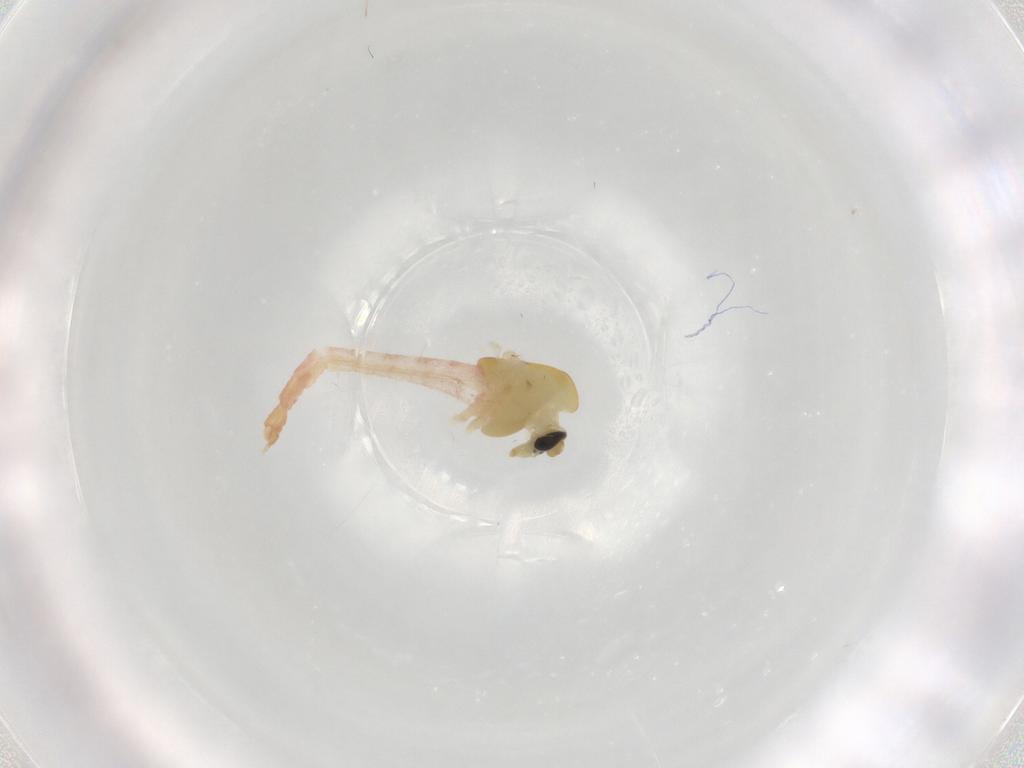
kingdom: Animalia
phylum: Arthropoda
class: Insecta
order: Diptera
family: Chironomidae
